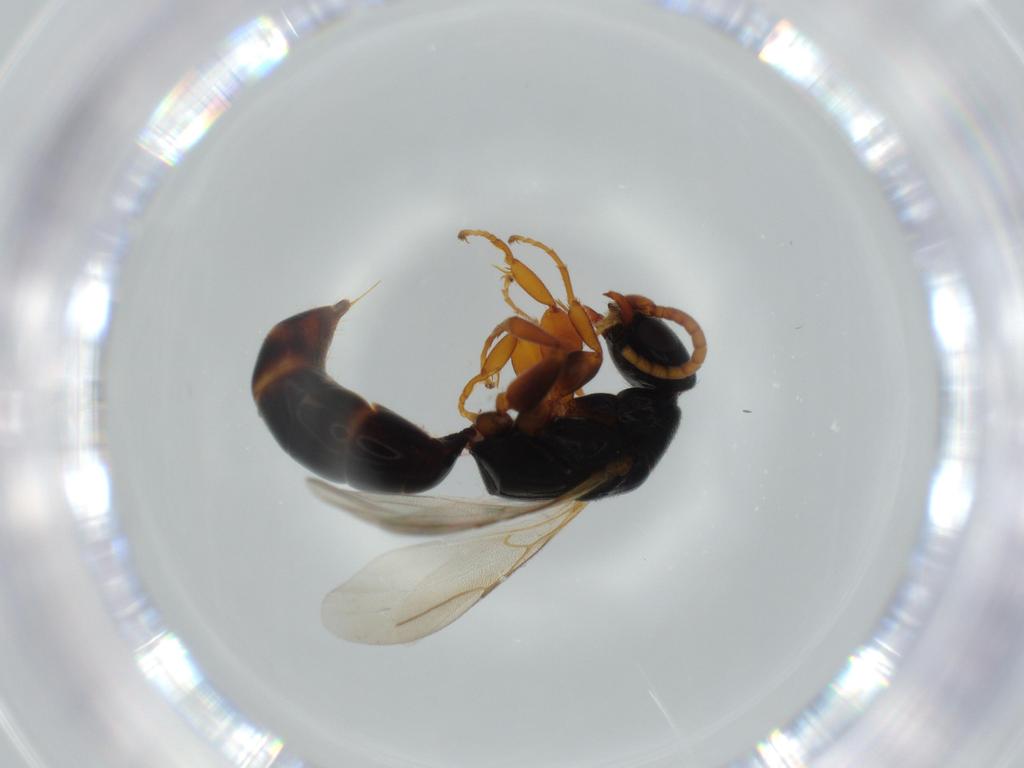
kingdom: Animalia
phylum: Arthropoda
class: Insecta
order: Hymenoptera
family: Bethylidae
